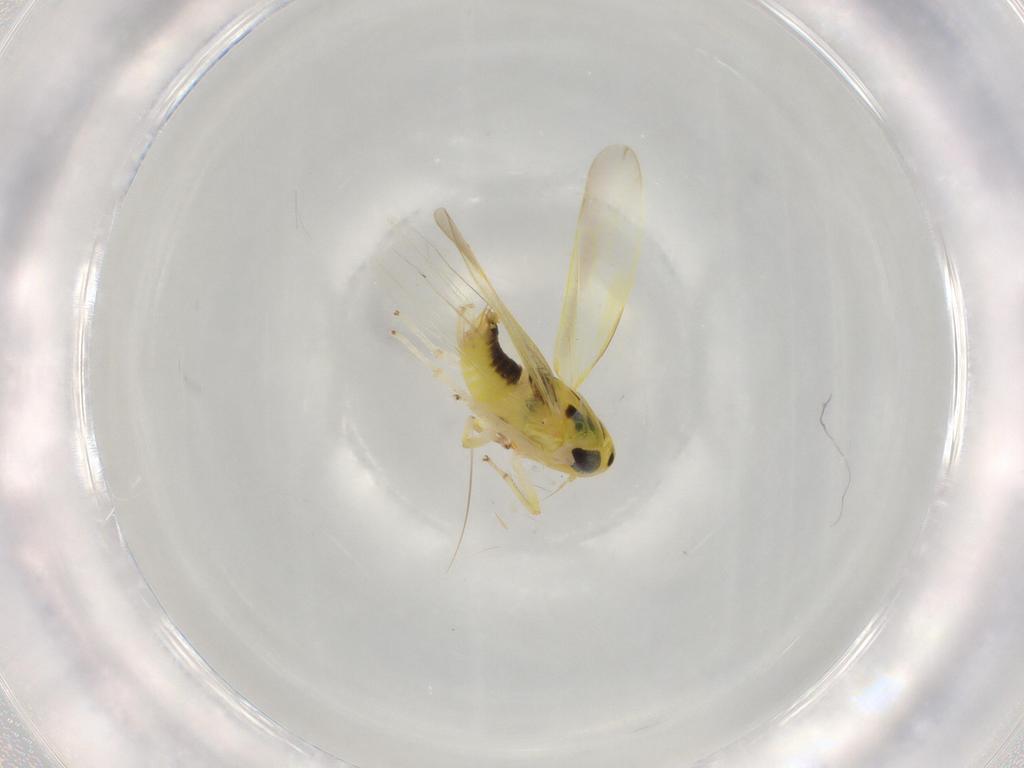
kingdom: Animalia
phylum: Arthropoda
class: Insecta
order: Hemiptera
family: Cicadellidae
